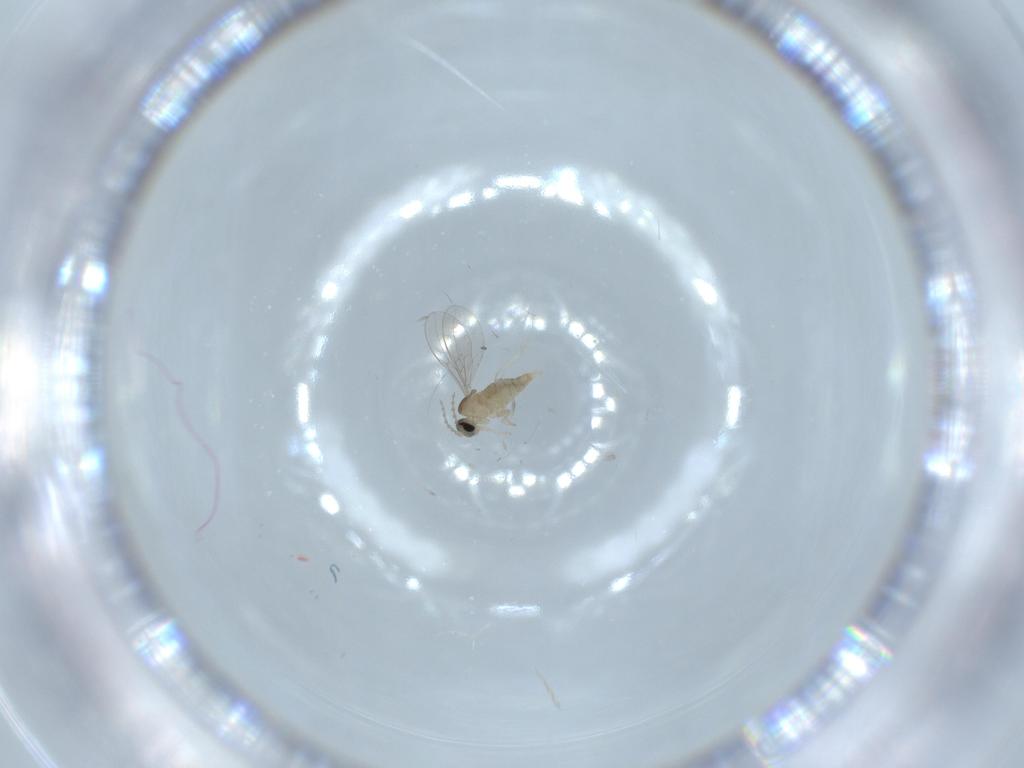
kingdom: Animalia
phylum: Arthropoda
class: Insecta
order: Diptera
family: Cecidomyiidae
